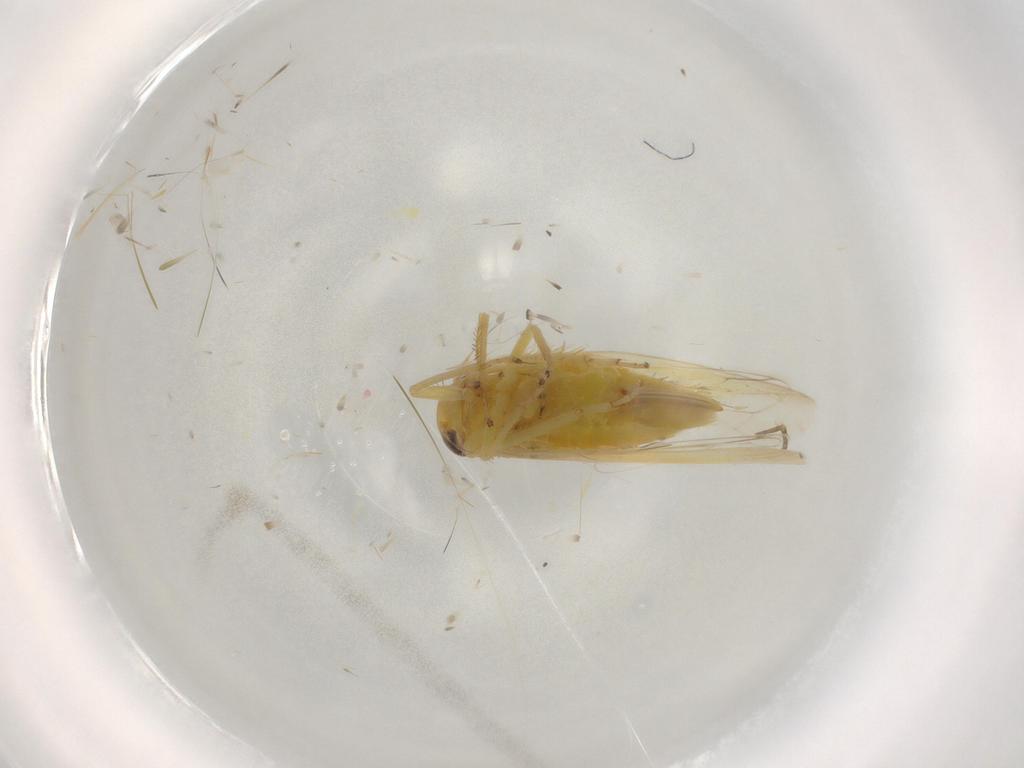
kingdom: Animalia
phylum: Arthropoda
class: Insecta
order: Hemiptera
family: Cicadellidae
